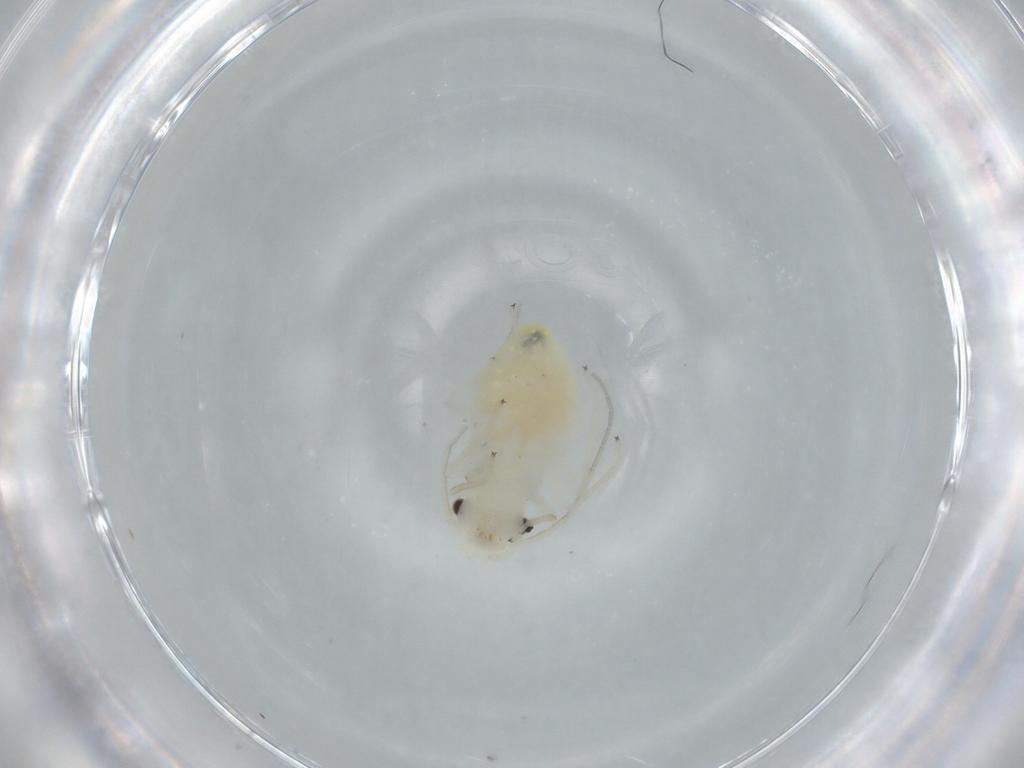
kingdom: Animalia
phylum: Arthropoda
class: Insecta
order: Psocodea
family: Caeciliusidae
